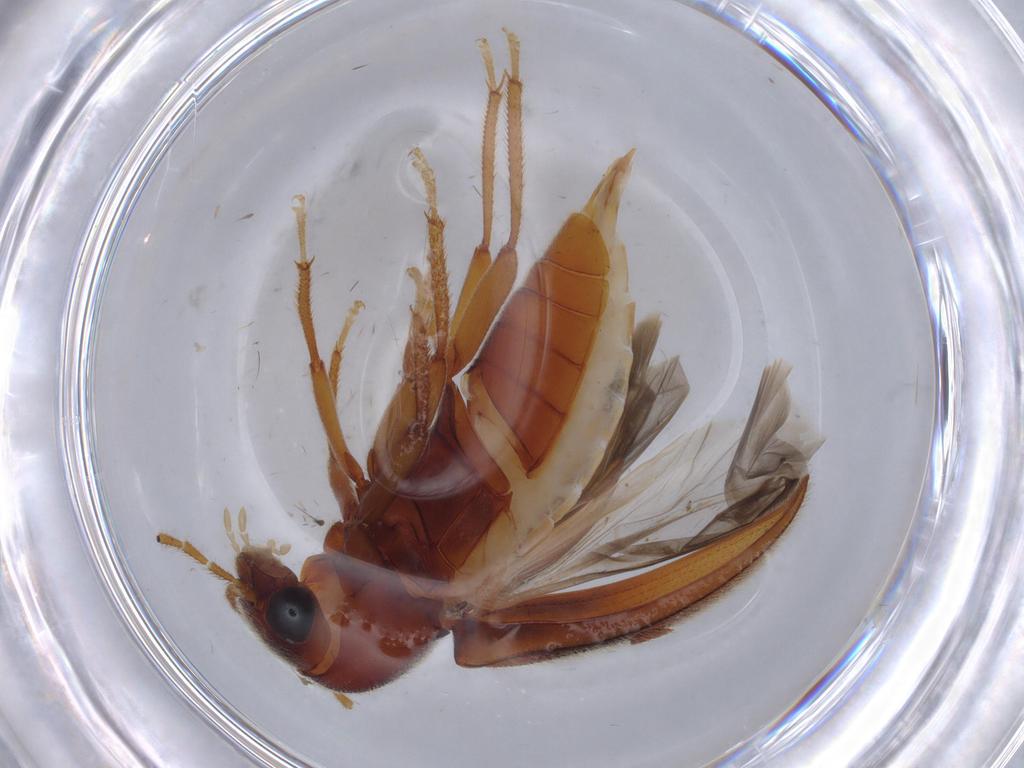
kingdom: Animalia
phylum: Arthropoda
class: Insecta
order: Coleoptera
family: Ptilodactylidae
